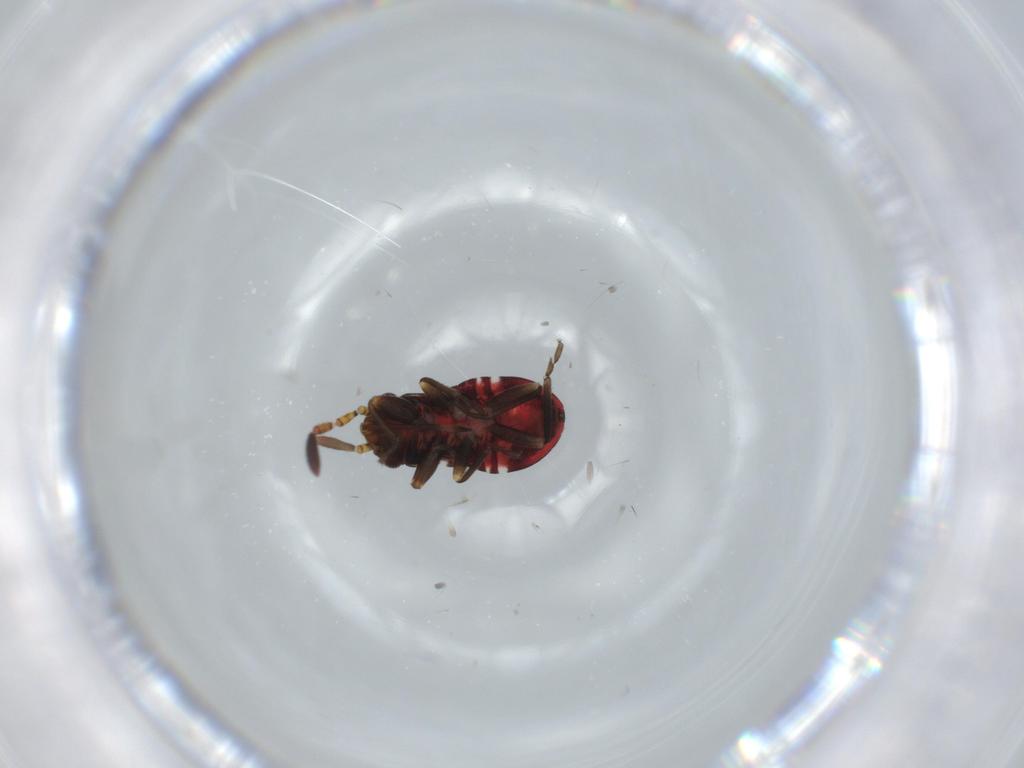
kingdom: Animalia
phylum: Arthropoda
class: Insecta
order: Hemiptera
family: Rhyparochromidae
